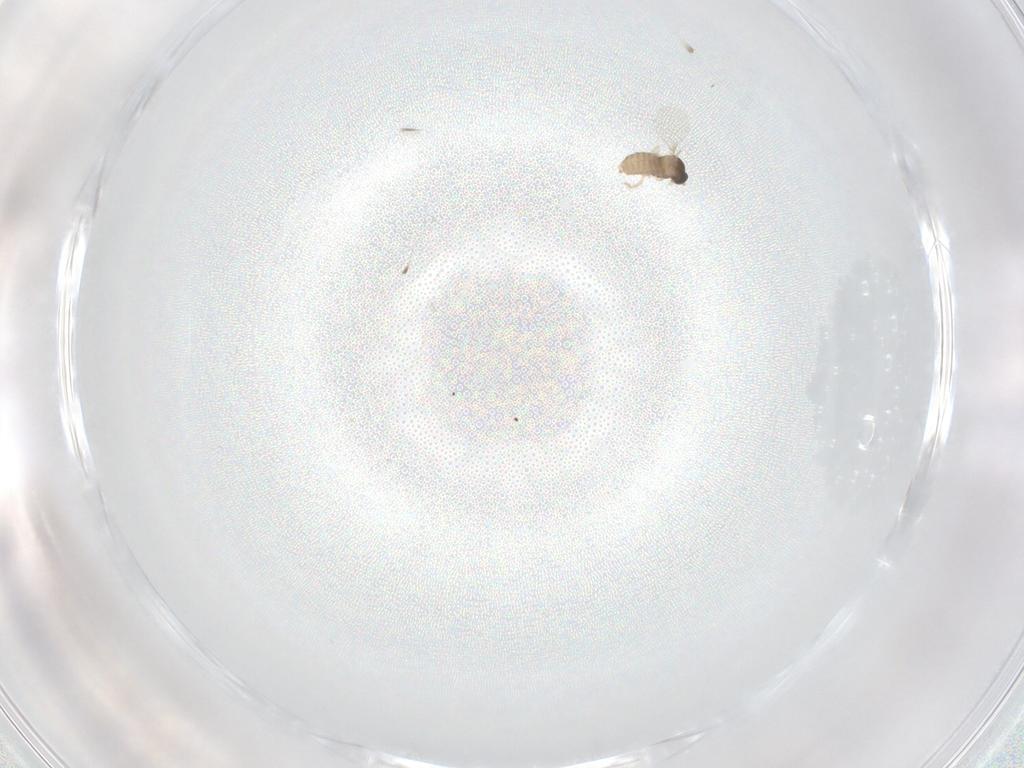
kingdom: Animalia
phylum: Arthropoda
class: Insecta
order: Diptera
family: Cecidomyiidae
